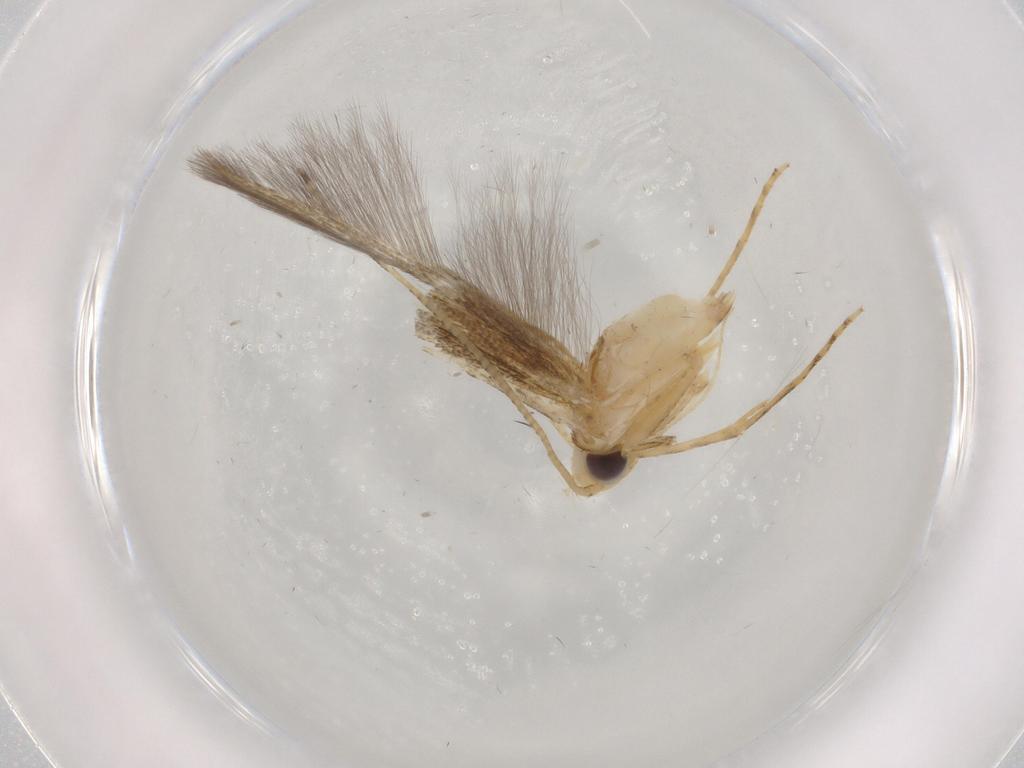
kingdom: Animalia
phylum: Arthropoda
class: Insecta
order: Lepidoptera
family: Batrachedridae
